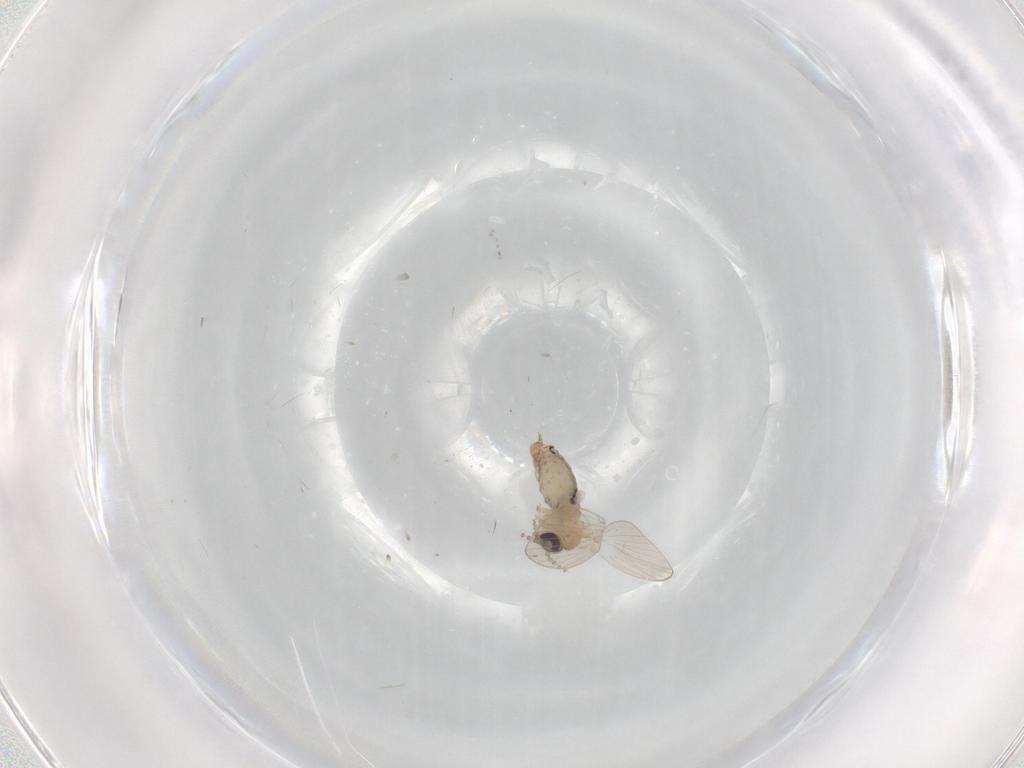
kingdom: Animalia
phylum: Arthropoda
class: Insecta
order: Diptera
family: Psychodidae
